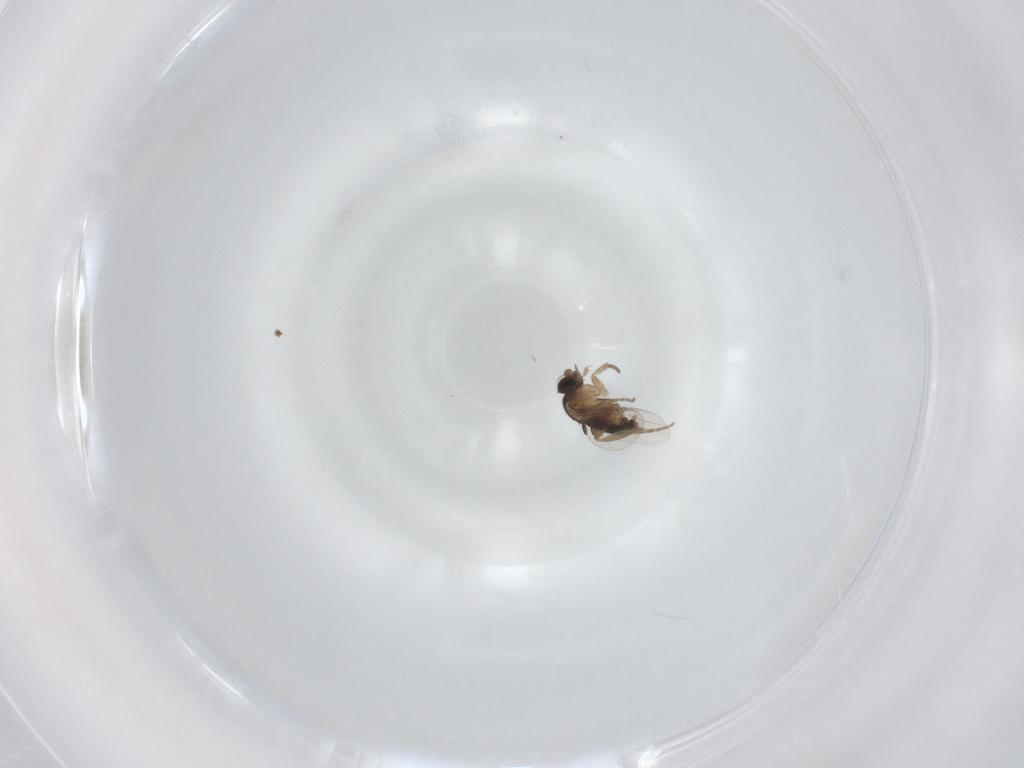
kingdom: Animalia
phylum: Arthropoda
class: Insecta
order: Diptera
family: Phoridae
